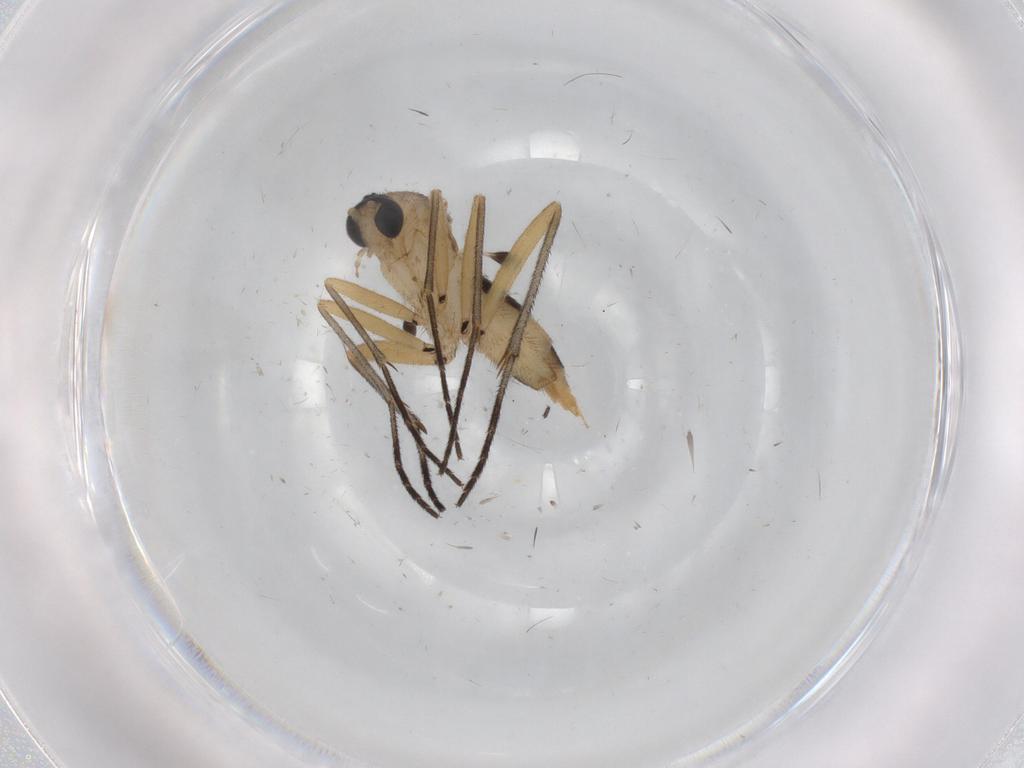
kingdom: Animalia
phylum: Arthropoda
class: Insecta
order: Diptera
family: Sciaridae
